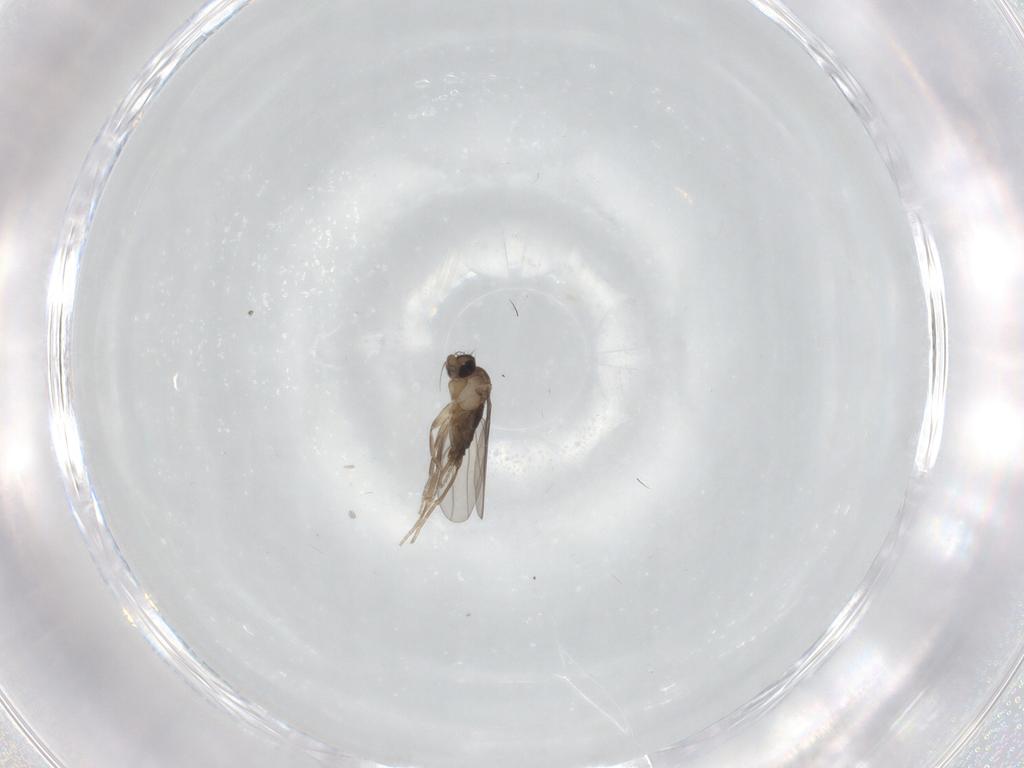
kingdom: Animalia
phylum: Arthropoda
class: Insecta
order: Diptera
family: Phoridae
